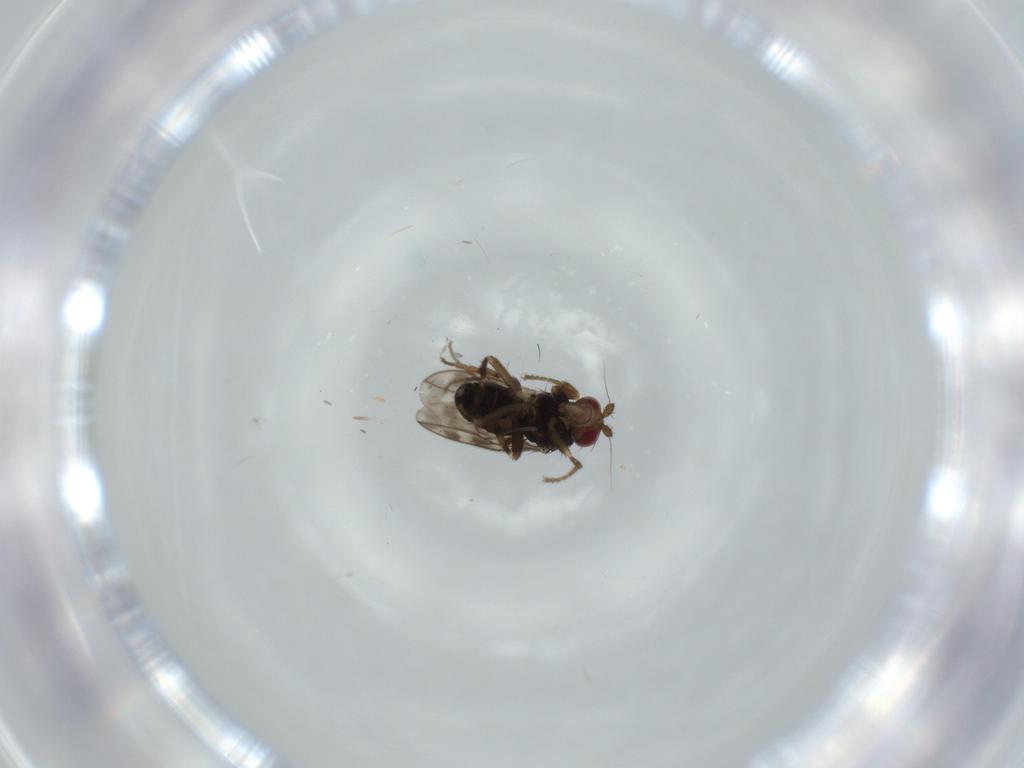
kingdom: Animalia
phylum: Arthropoda
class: Insecta
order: Diptera
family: Sphaeroceridae
